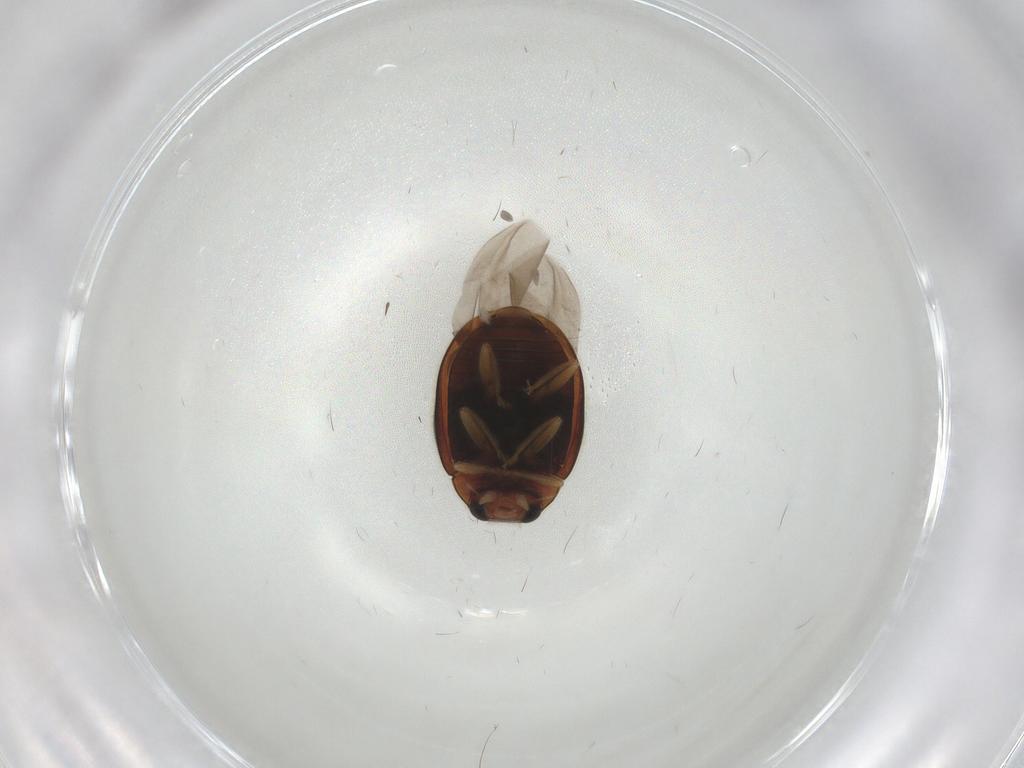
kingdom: Animalia
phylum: Arthropoda
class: Insecta
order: Coleoptera
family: Coccinellidae
